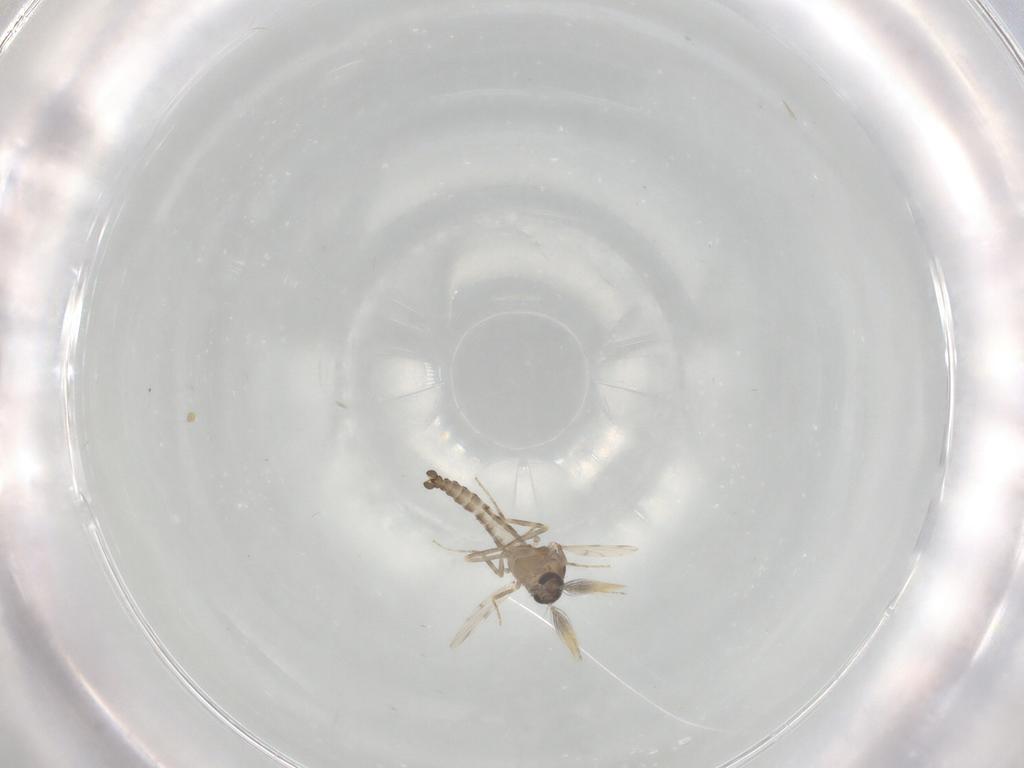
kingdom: Animalia
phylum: Arthropoda
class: Insecta
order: Diptera
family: Ceratopogonidae
